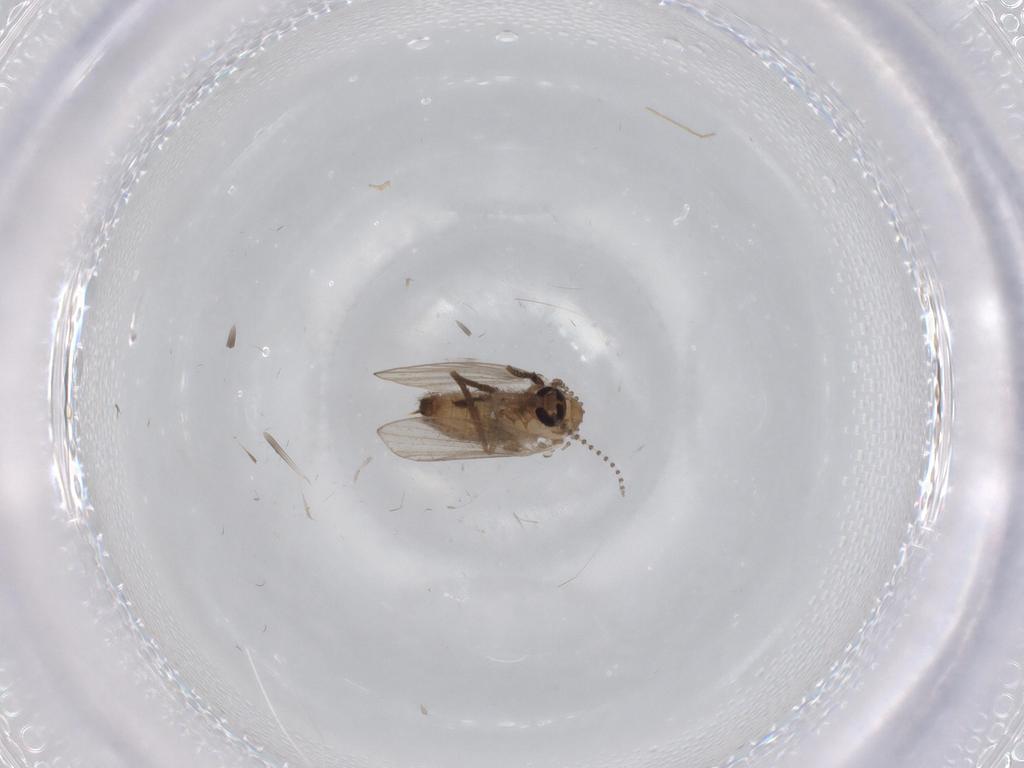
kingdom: Animalia
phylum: Arthropoda
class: Insecta
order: Diptera
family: Psychodidae
